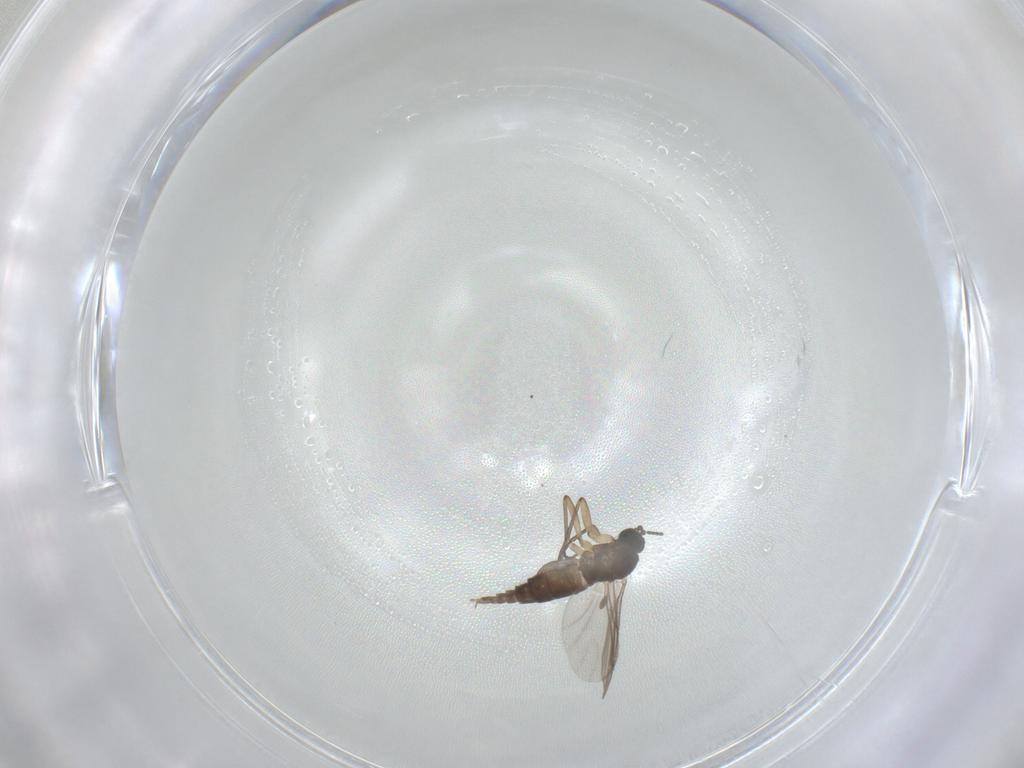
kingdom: Animalia
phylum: Arthropoda
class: Insecta
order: Diptera
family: Sciaridae
